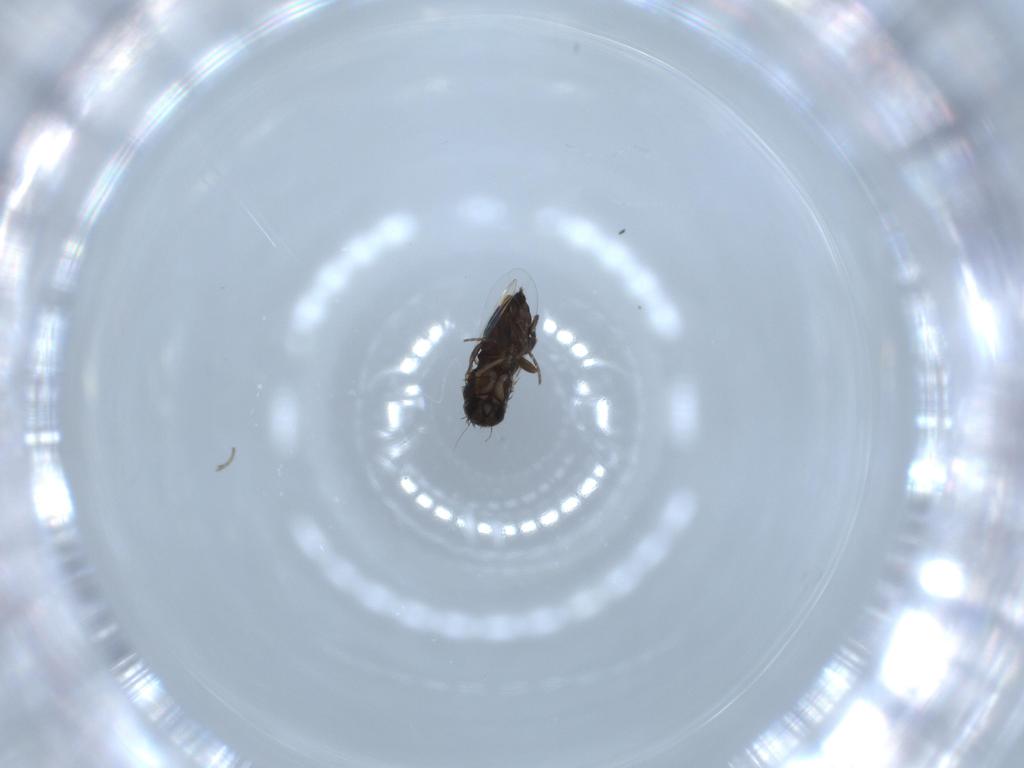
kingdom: Animalia
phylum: Arthropoda
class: Insecta
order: Diptera
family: Phoridae
